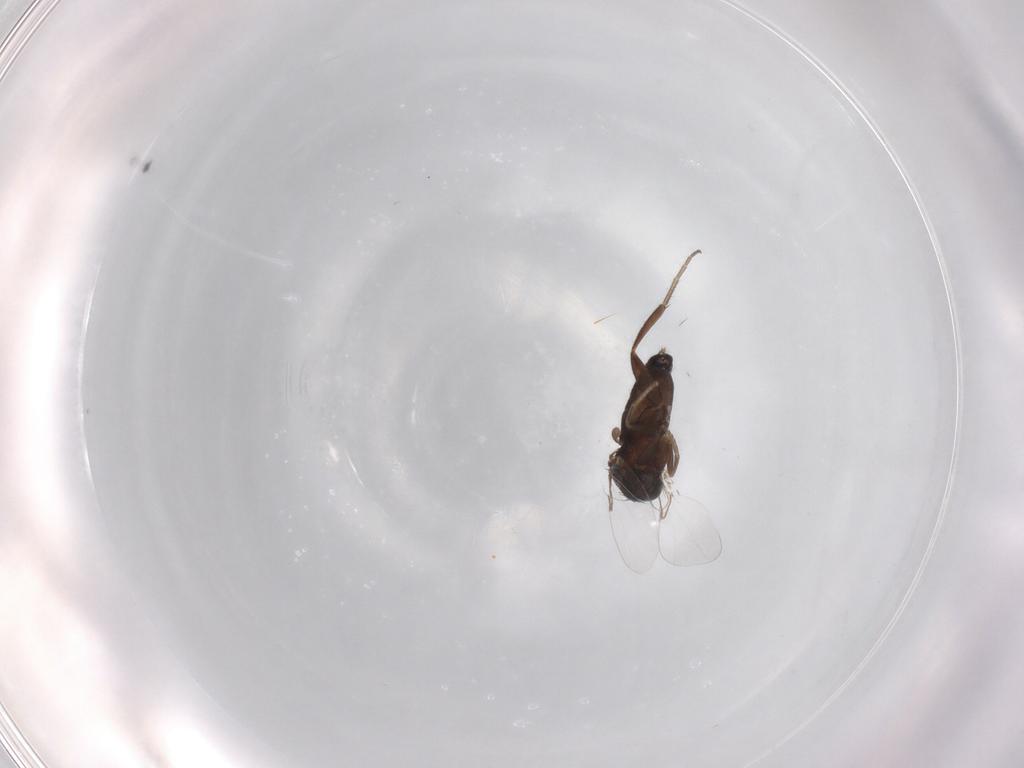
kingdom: Animalia
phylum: Arthropoda
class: Insecta
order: Diptera
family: Phoridae
